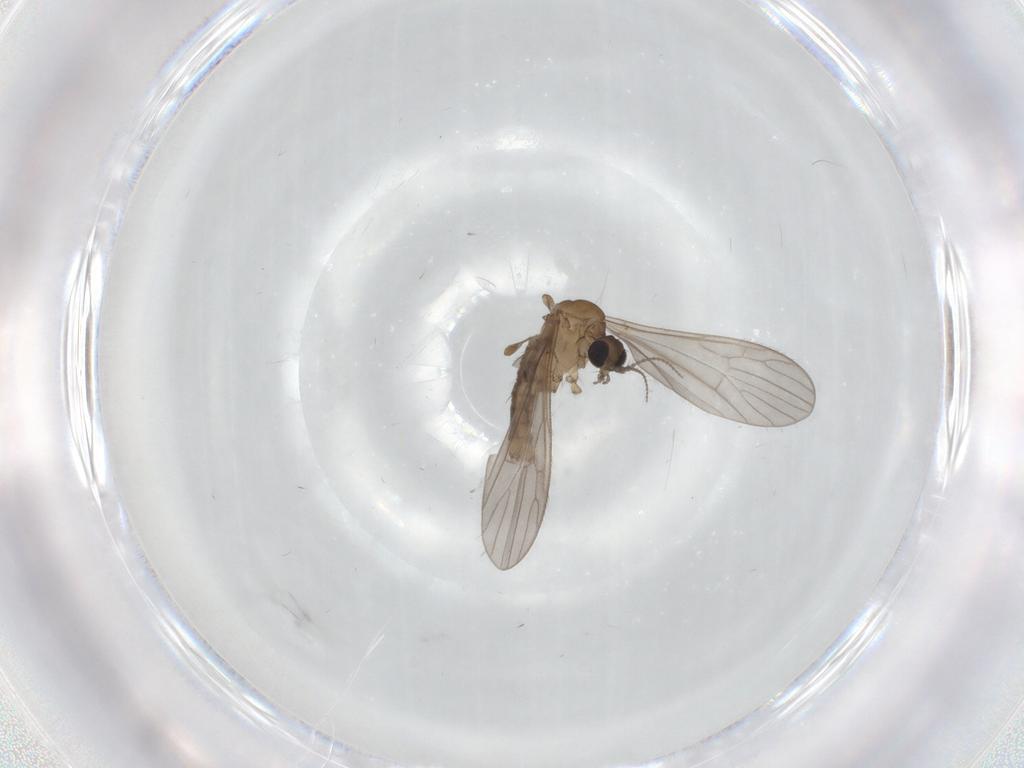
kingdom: Animalia
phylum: Arthropoda
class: Insecta
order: Diptera
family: Limoniidae
